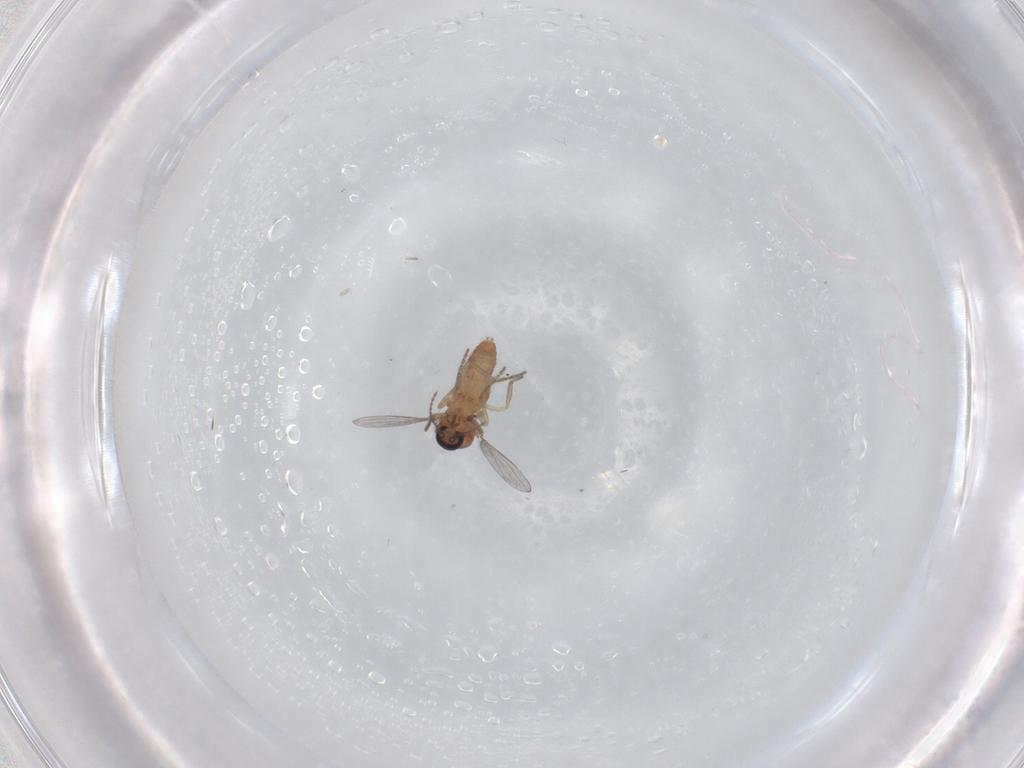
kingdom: Animalia
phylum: Arthropoda
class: Insecta
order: Diptera
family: Ceratopogonidae
